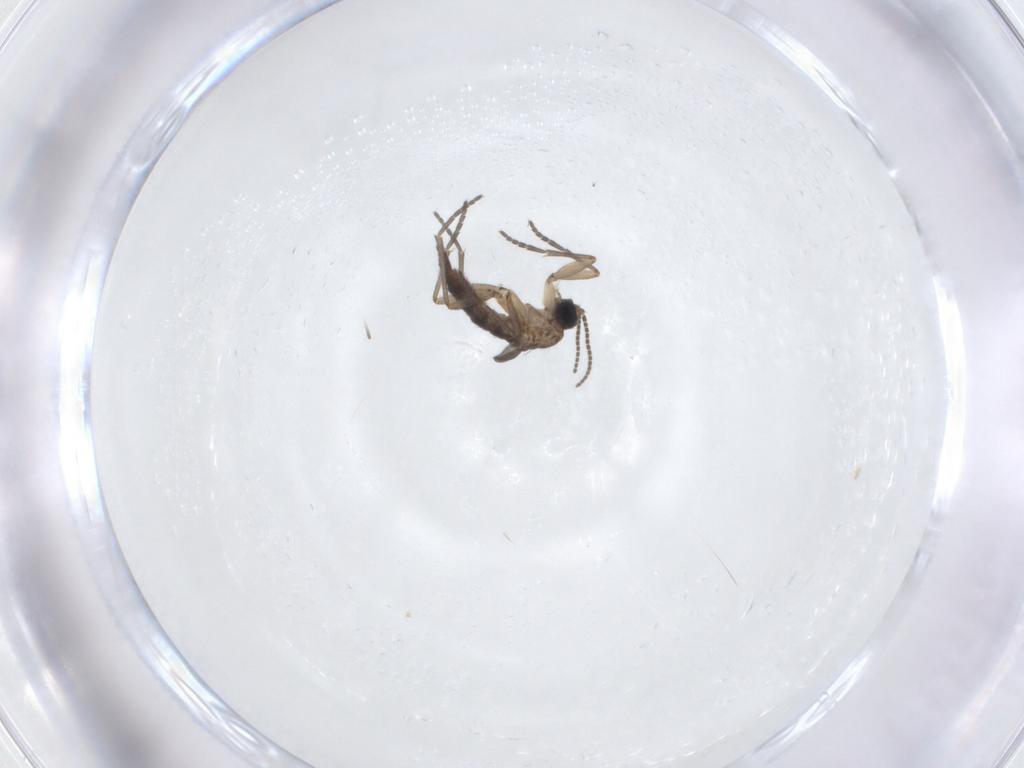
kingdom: Animalia
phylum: Arthropoda
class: Insecta
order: Diptera
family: Sciaridae
